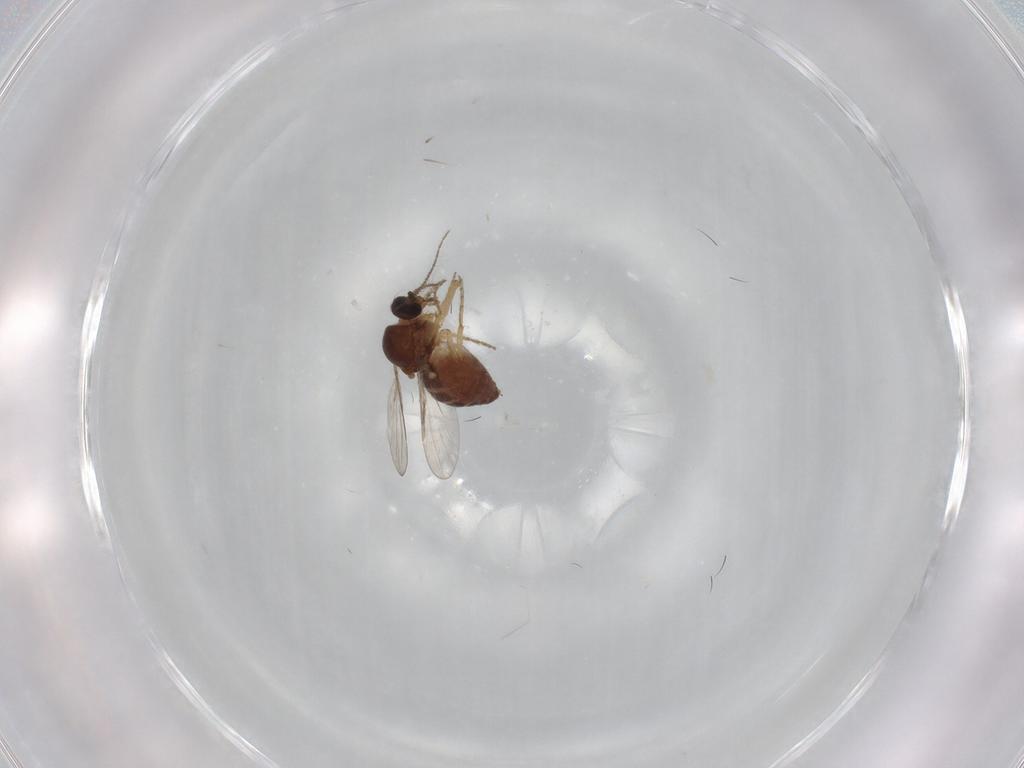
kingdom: Animalia
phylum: Arthropoda
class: Insecta
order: Diptera
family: Ceratopogonidae
